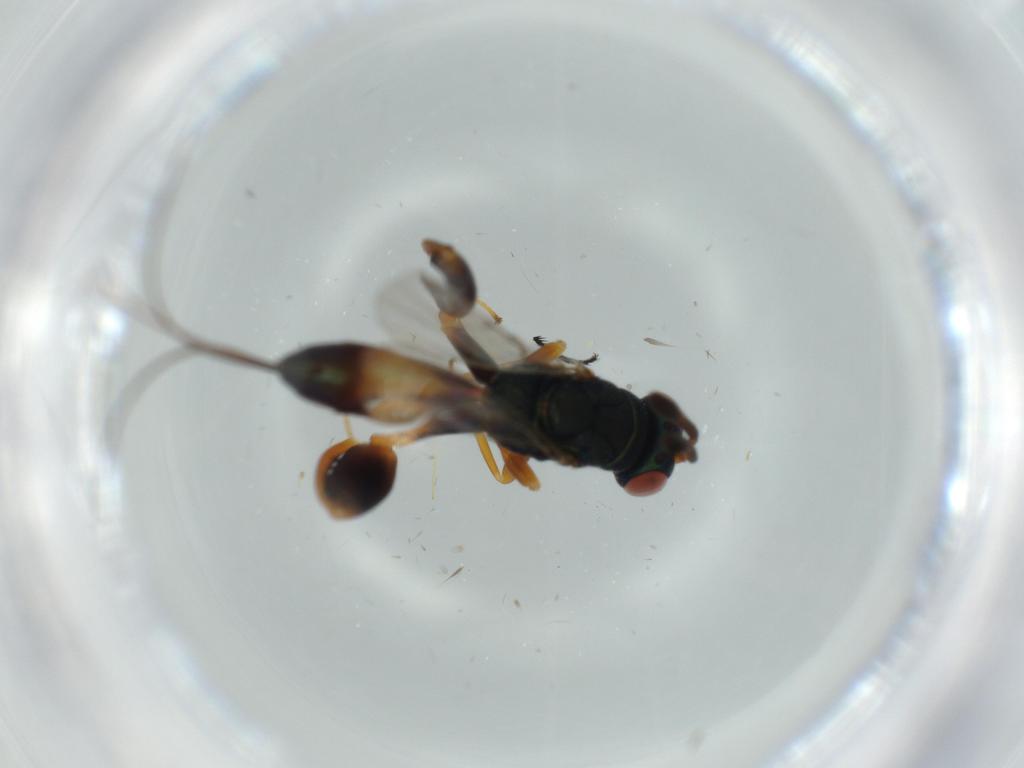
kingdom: Animalia
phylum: Arthropoda
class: Insecta
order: Hymenoptera
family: Torymidae
